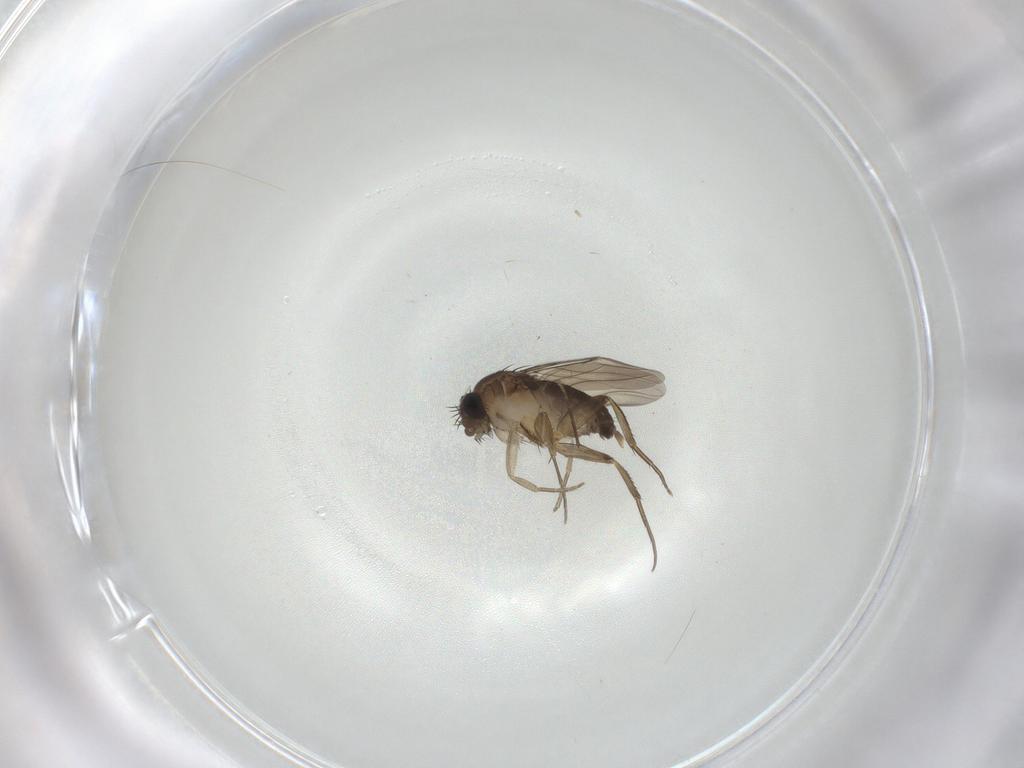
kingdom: Animalia
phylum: Arthropoda
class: Insecta
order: Diptera
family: Phoridae
